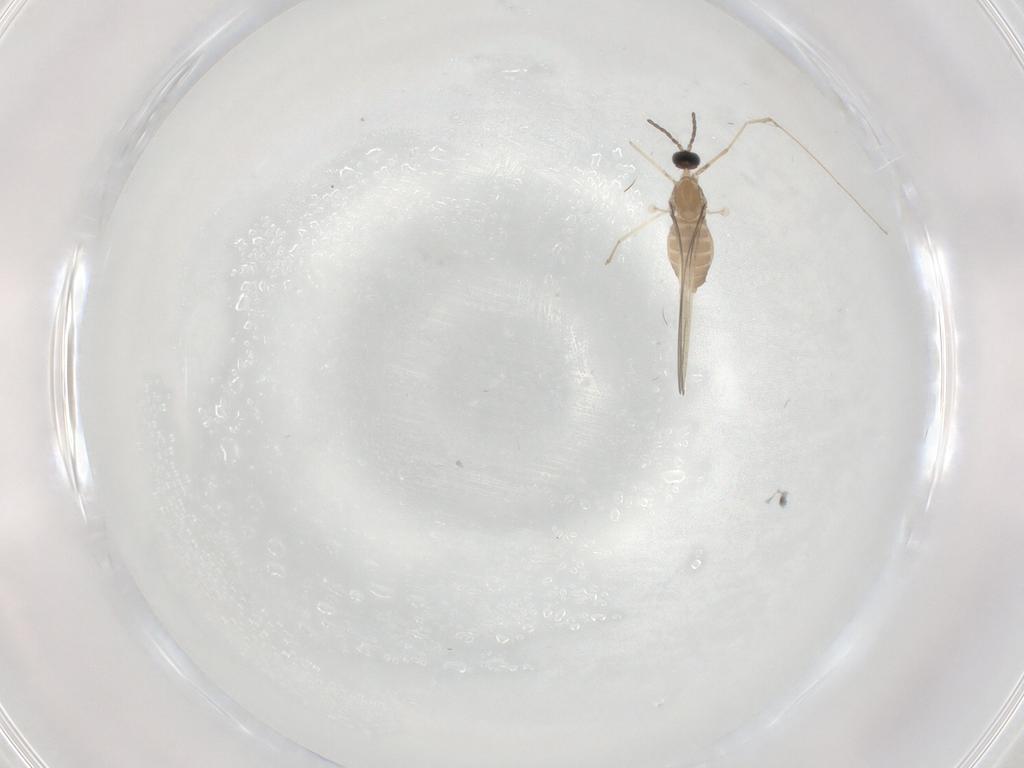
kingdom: Animalia
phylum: Arthropoda
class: Insecta
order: Diptera
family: Cecidomyiidae
